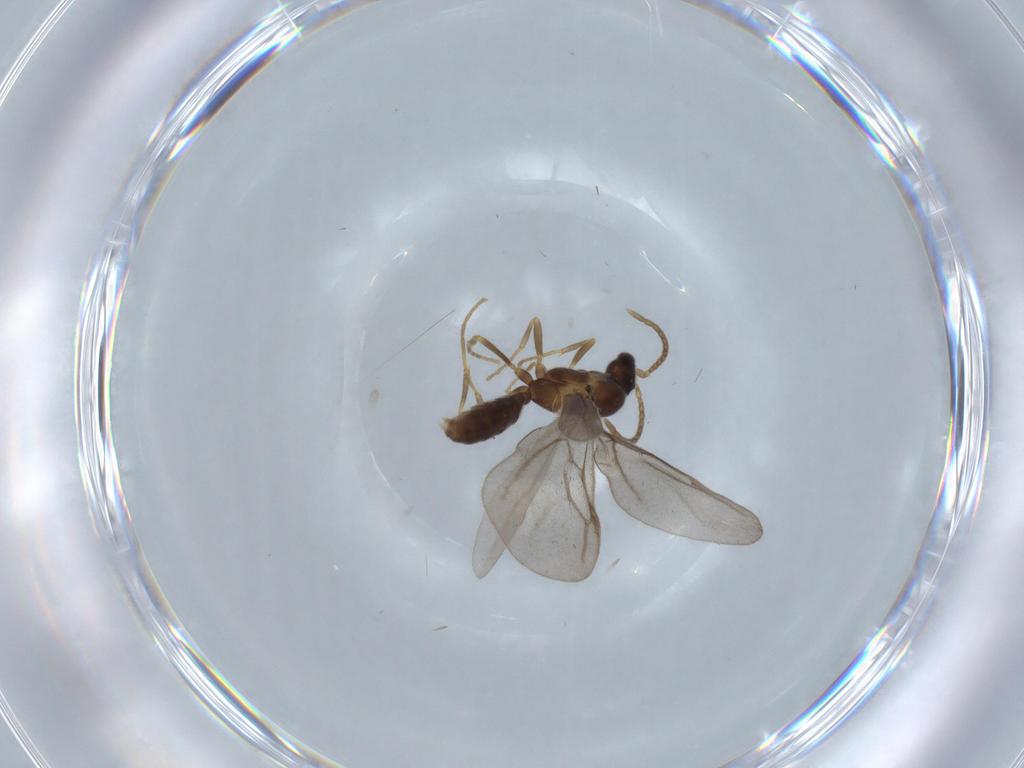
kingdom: Animalia
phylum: Arthropoda
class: Insecta
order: Hymenoptera
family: Formicidae
